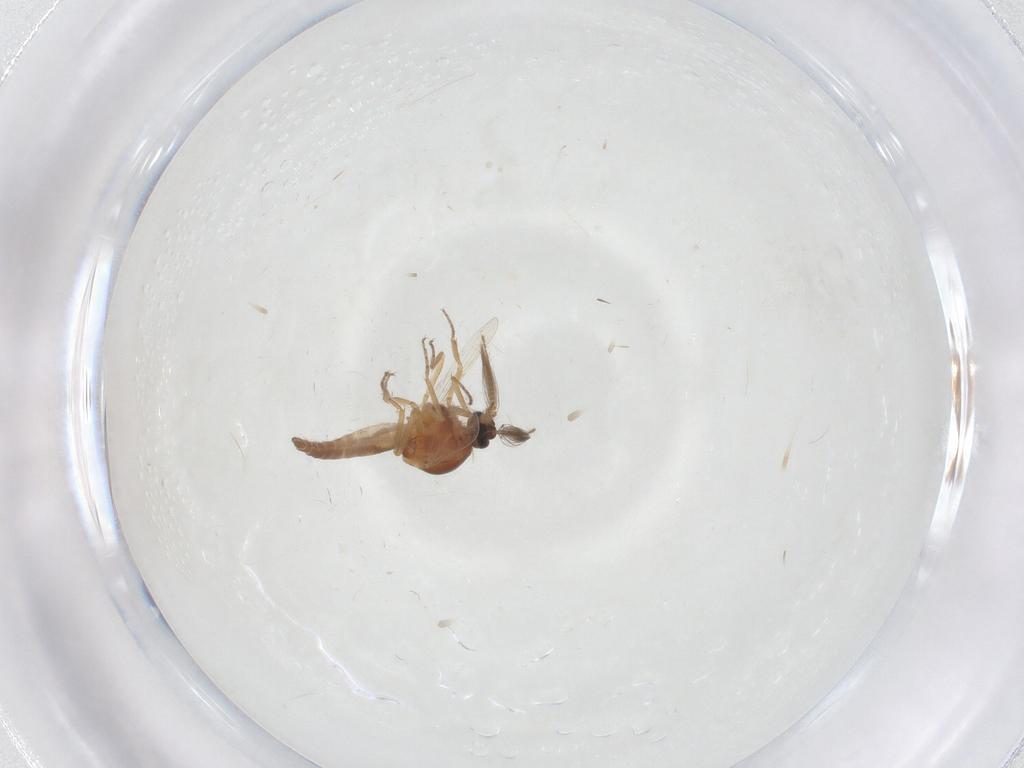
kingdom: Animalia
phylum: Arthropoda
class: Insecta
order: Diptera
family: Ceratopogonidae
